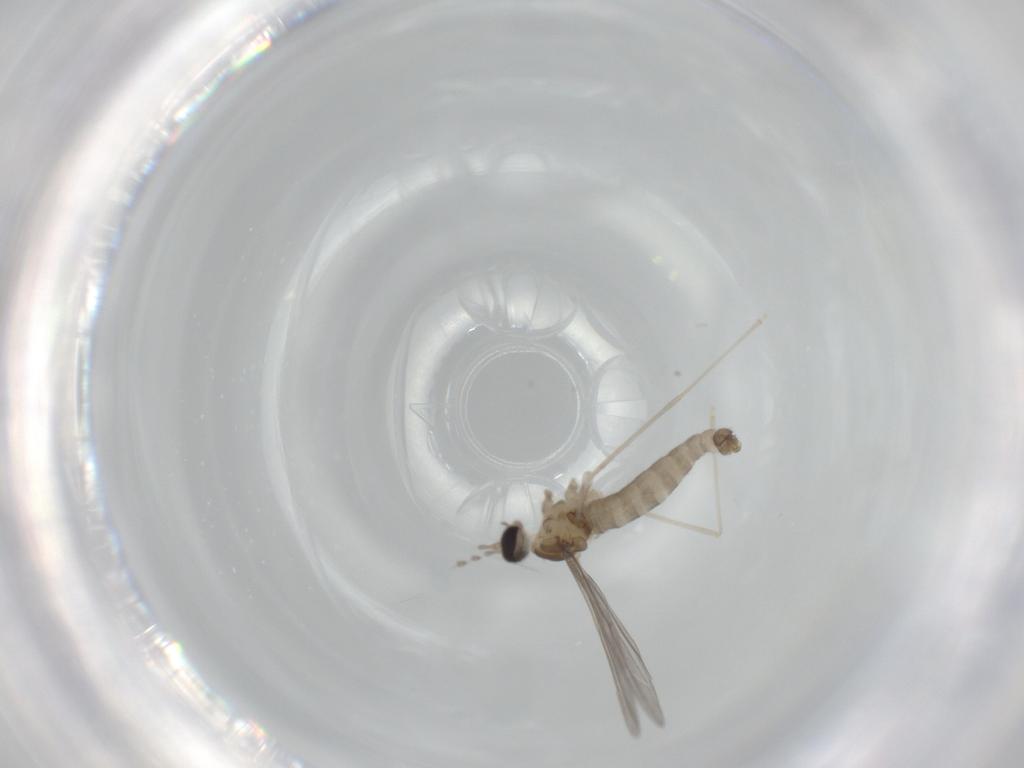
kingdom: Animalia
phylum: Arthropoda
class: Insecta
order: Diptera
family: Cecidomyiidae
